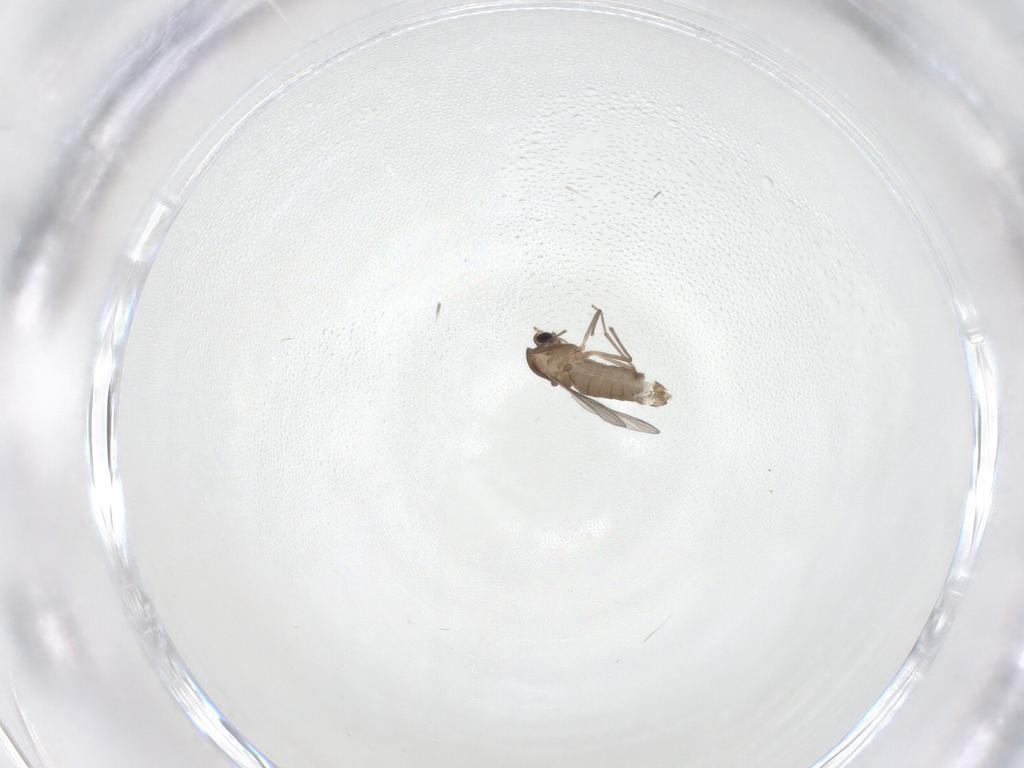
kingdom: Animalia
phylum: Arthropoda
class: Insecta
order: Diptera
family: Chironomidae
